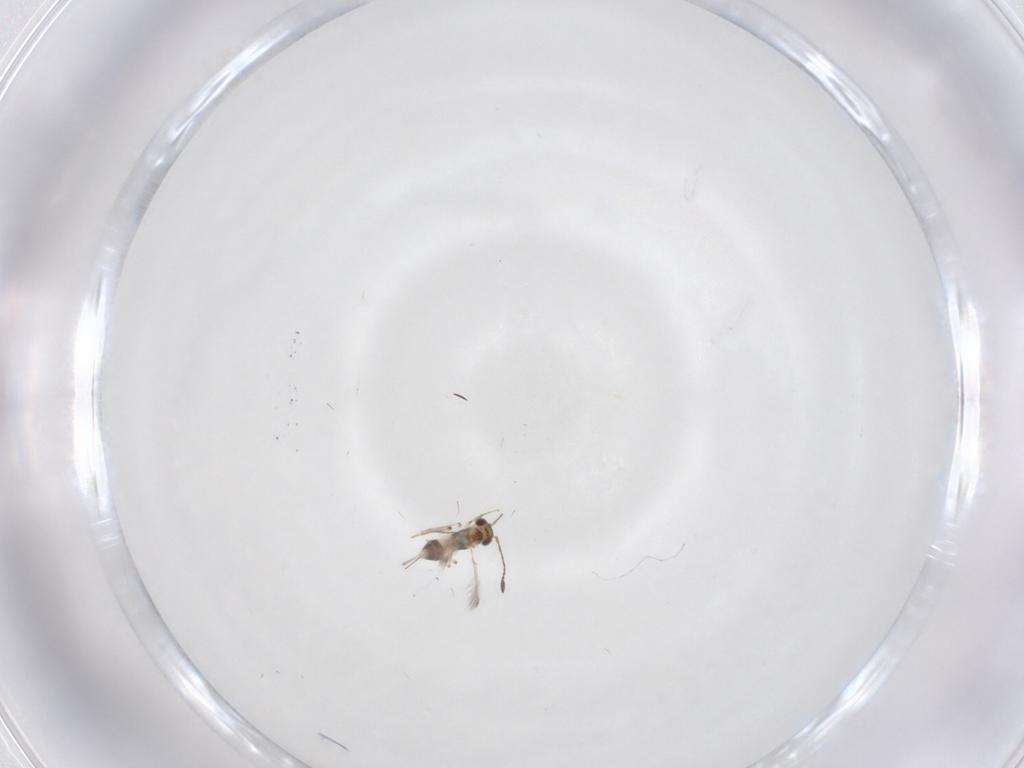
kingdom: Animalia
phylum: Arthropoda
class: Insecta
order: Hymenoptera
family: Mymaridae
